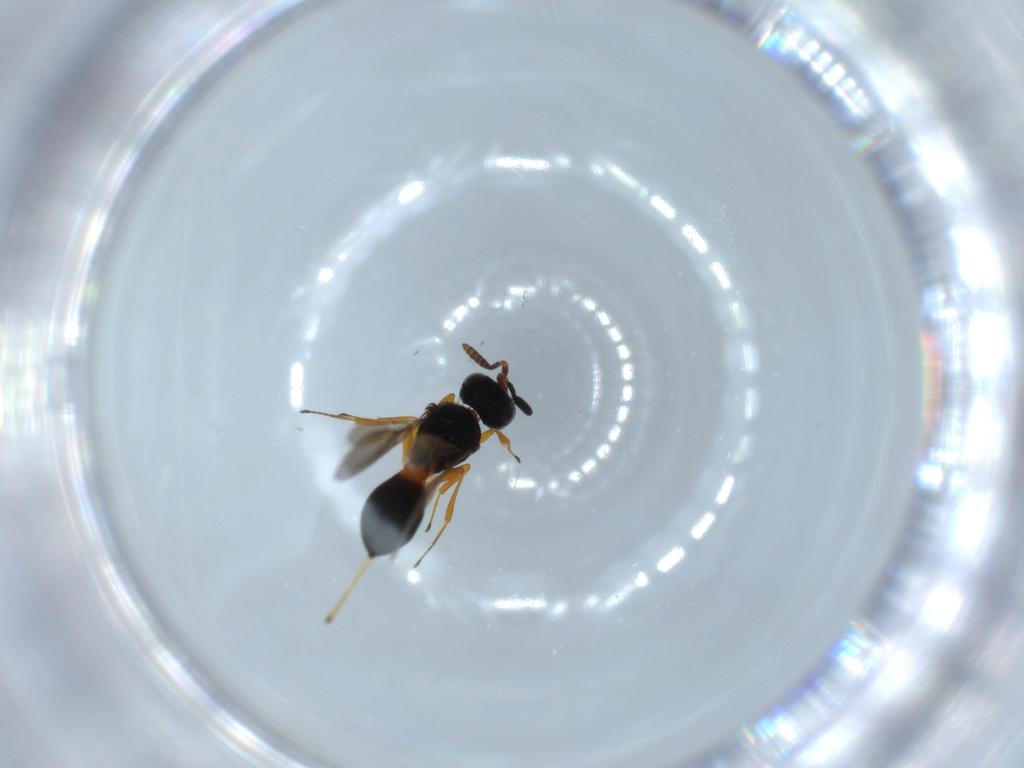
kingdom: Animalia
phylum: Arthropoda
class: Insecta
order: Hymenoptera
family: Scelionidae
